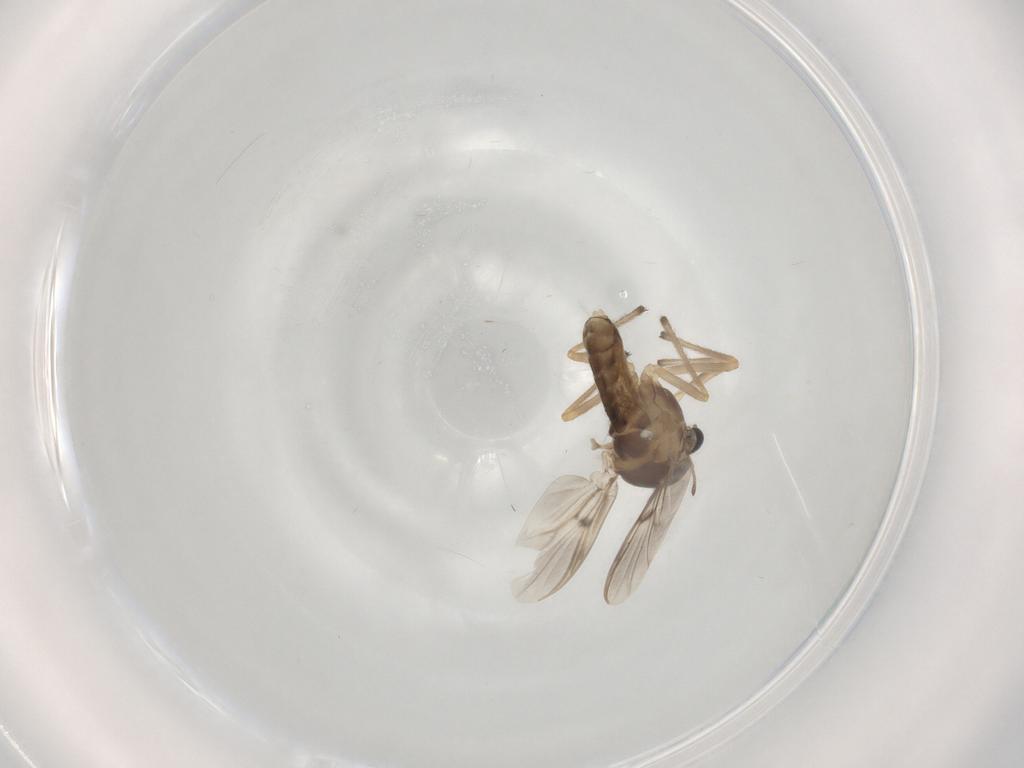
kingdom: Animalia
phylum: Arthropoda
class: Insecta
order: Diptera
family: Chironomidae
